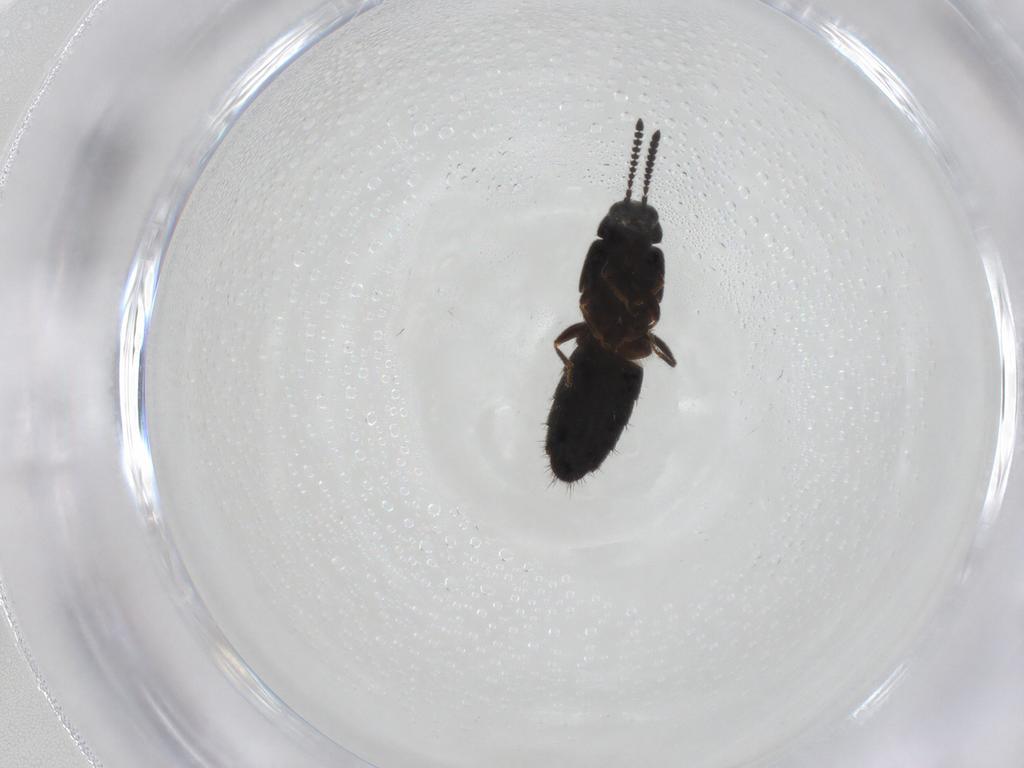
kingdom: Animalia
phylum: Arthropoda
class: Insecta
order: Coleoptera
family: Staphylinidae
